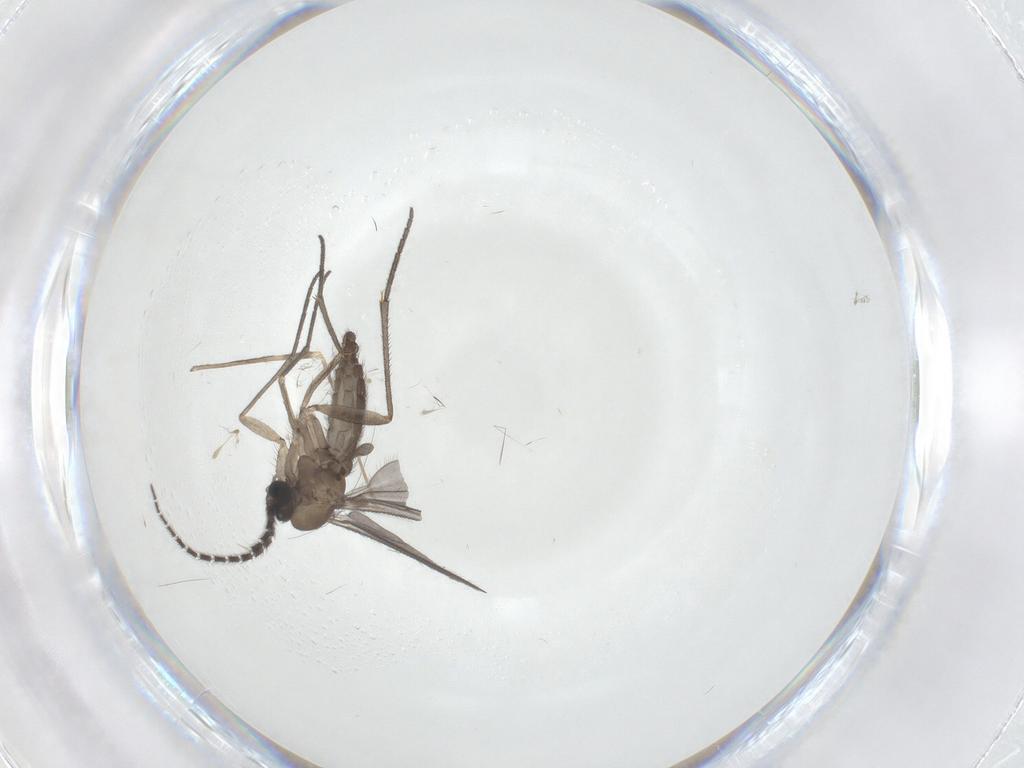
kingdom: Animalia
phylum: Arthropoda
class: Insecta
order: Diptera
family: Sciaridae
